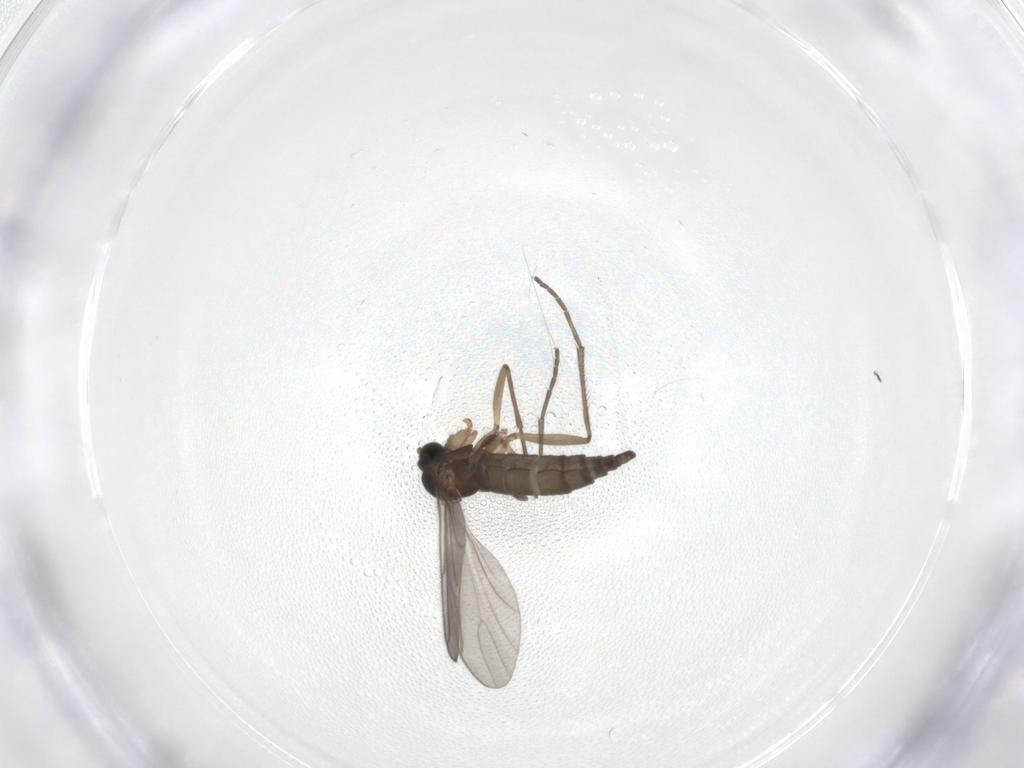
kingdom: Animalia
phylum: Arthropoda
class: Insecta
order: Diptera
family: Sciaridae
